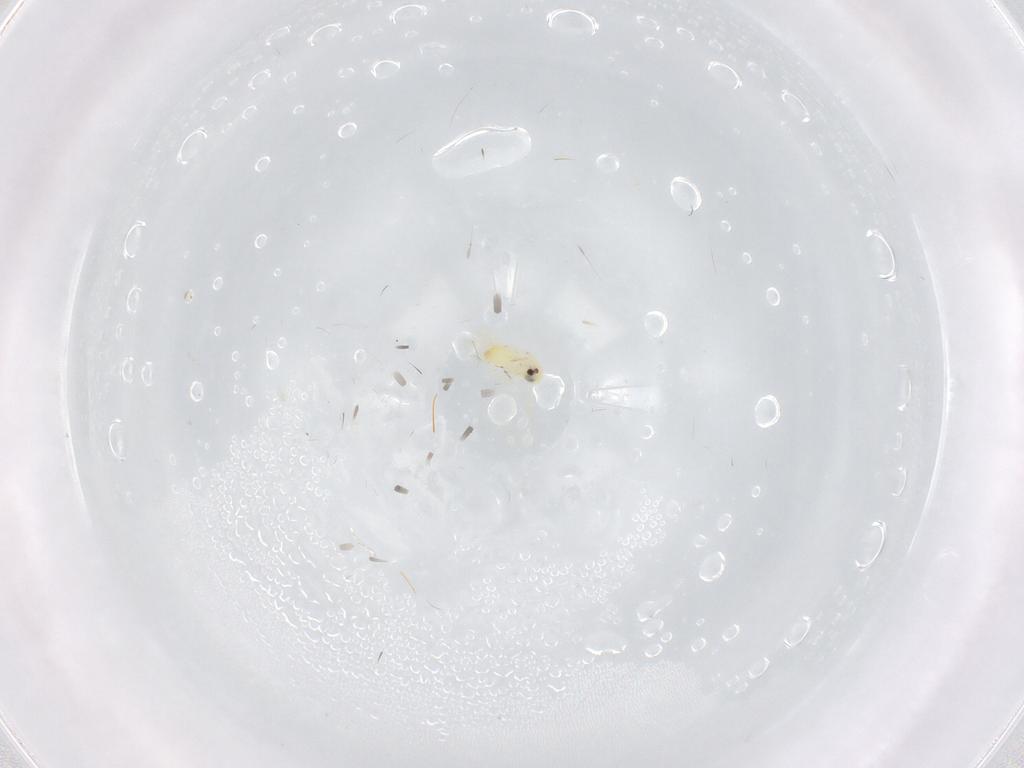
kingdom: Animalia
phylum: Arthropoda
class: Insecta
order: Hemiptera
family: Aleyrodidae
